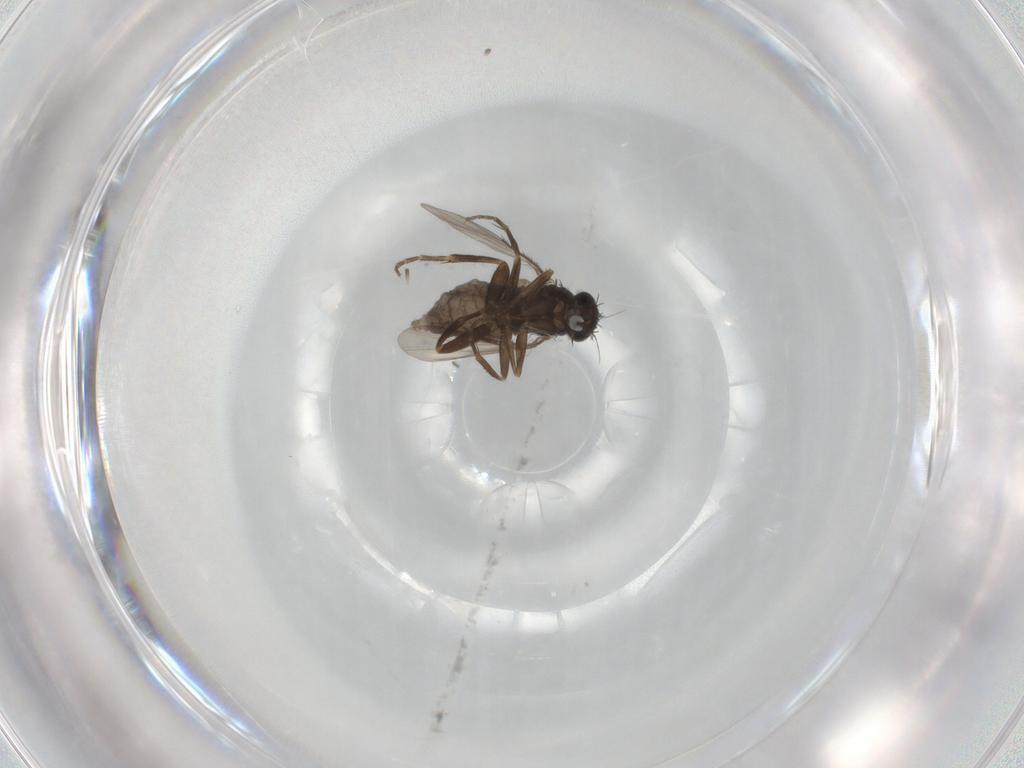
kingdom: Animalia
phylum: Arthropoda
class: Insecta
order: Diptera
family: Phoridae
